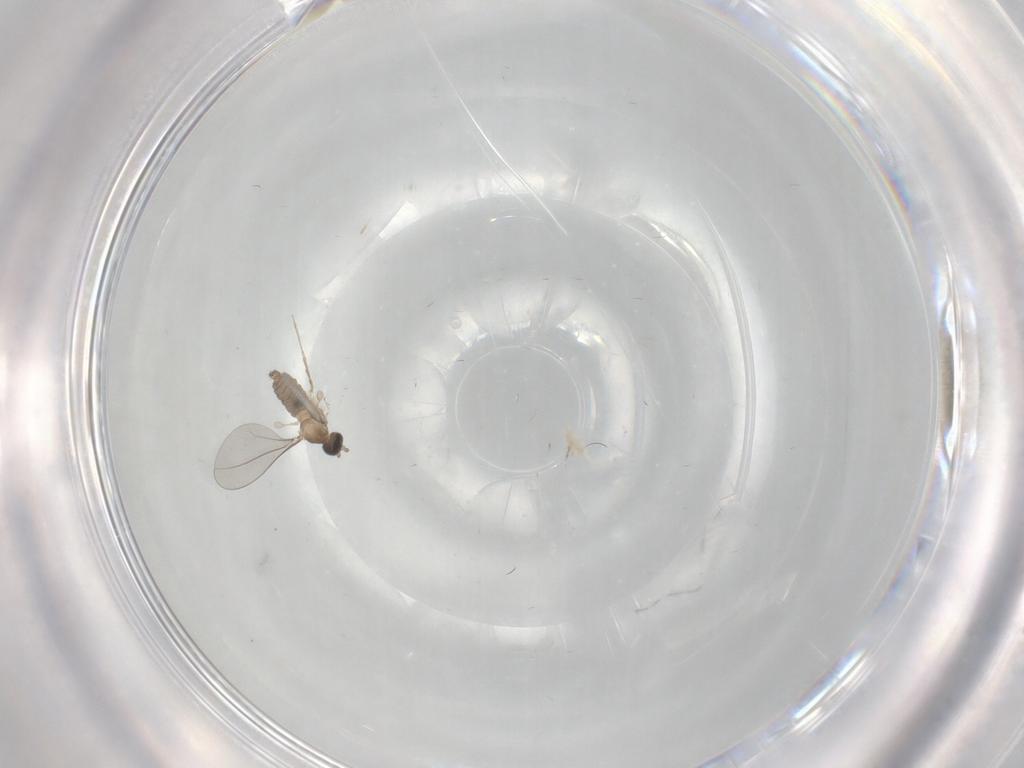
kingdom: Animalia
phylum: Arthropoda
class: Insecta
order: Diptera
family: Cecidomyiidae
